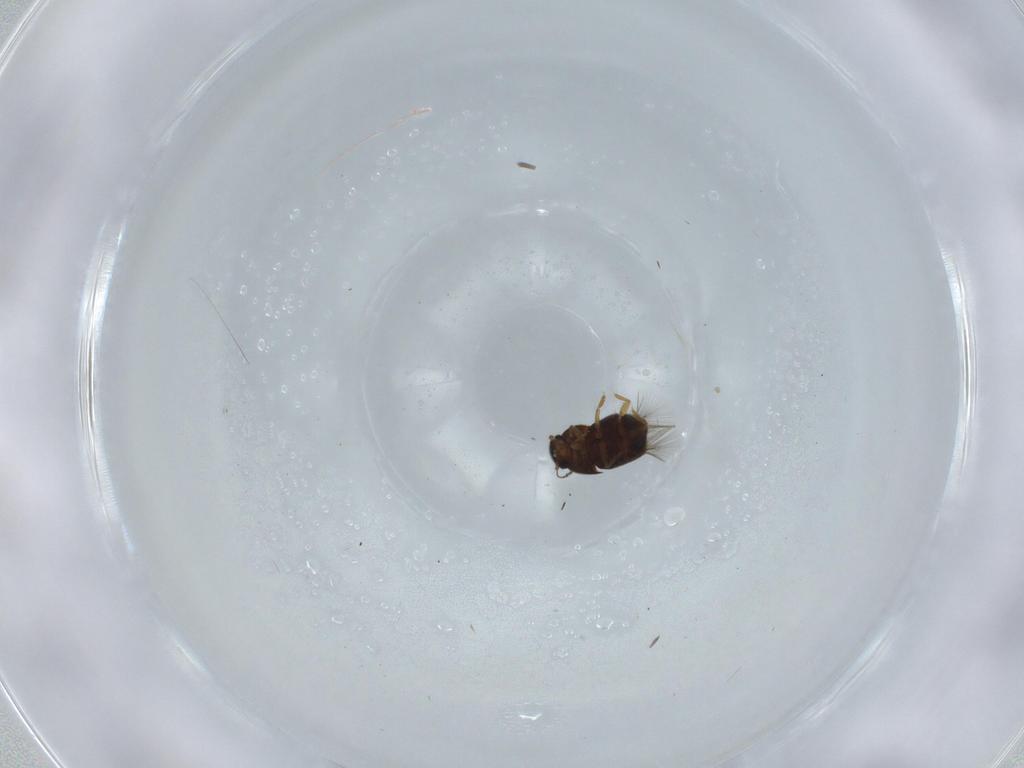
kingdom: Animalia
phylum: Arthropoda
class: Insecta
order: Coleoptera
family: Ptiliidae
